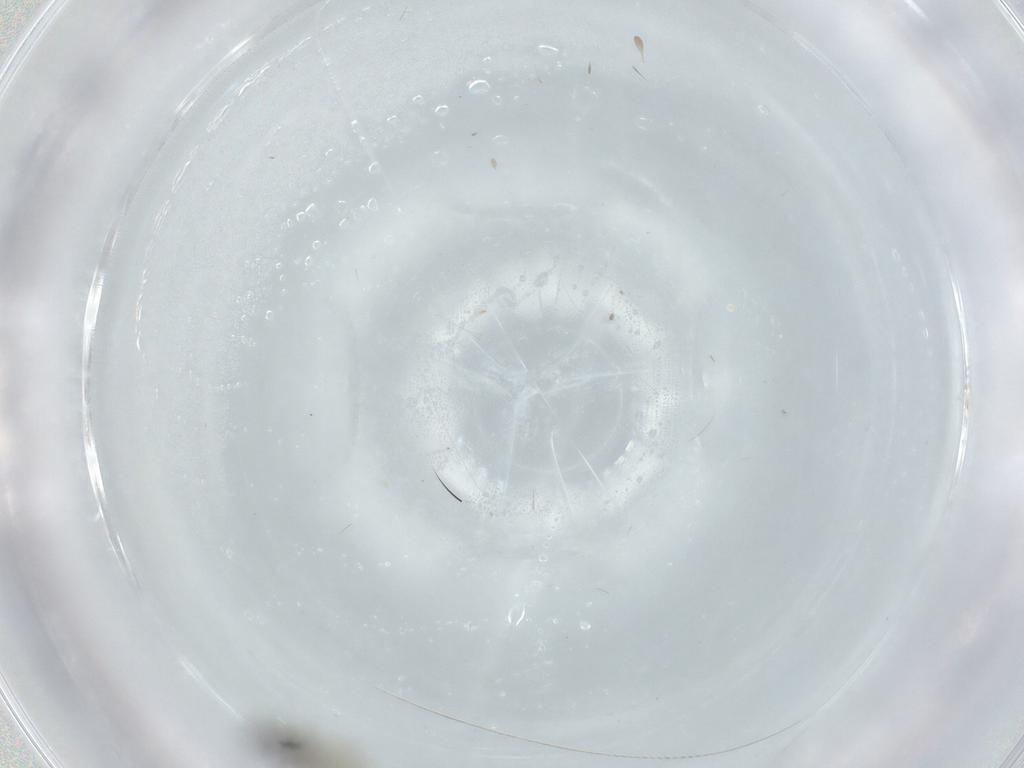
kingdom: Animalia
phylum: Arthropoda
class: Insecta
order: Diptera
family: Cecidomyiidae
